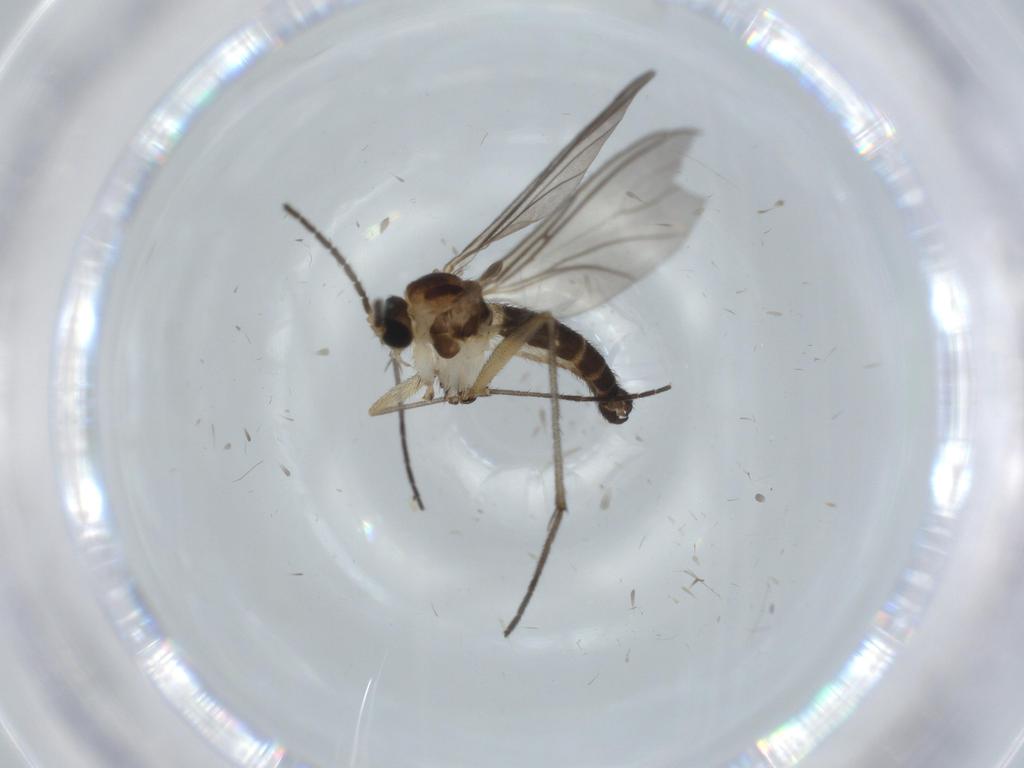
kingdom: Animalia
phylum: Arthropoda
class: Insecta
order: Diptera
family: Sciaridae
